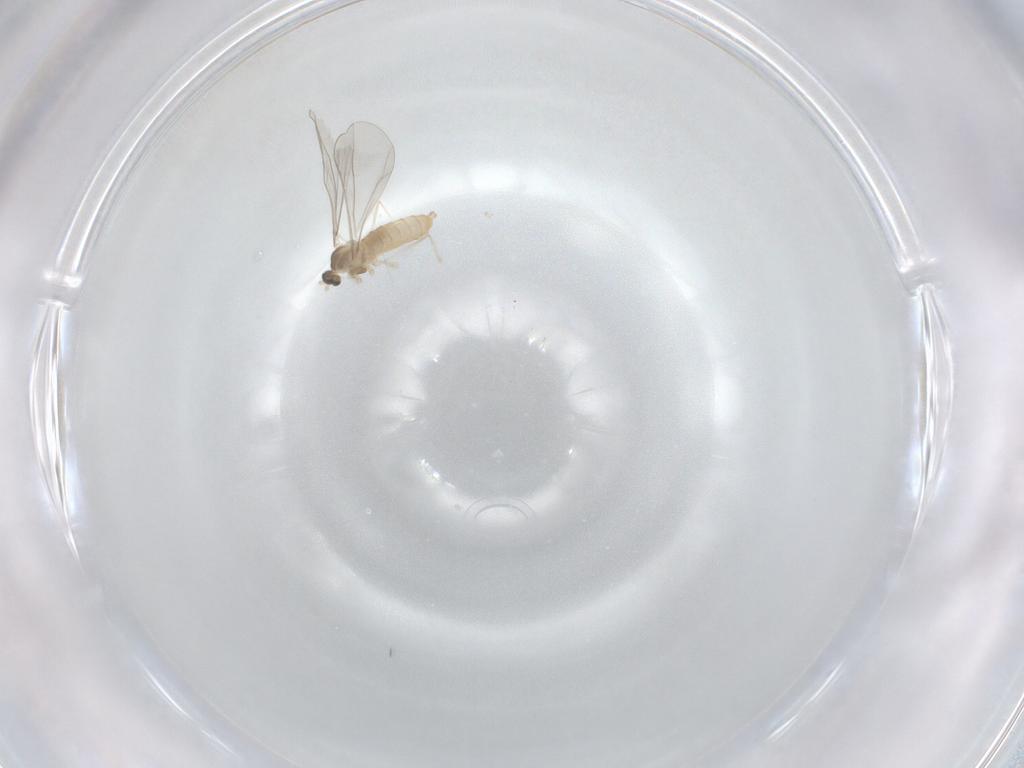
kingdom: Animalia
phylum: Arthropoda
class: Insecta
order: Diptera
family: Cecidomyiidae
